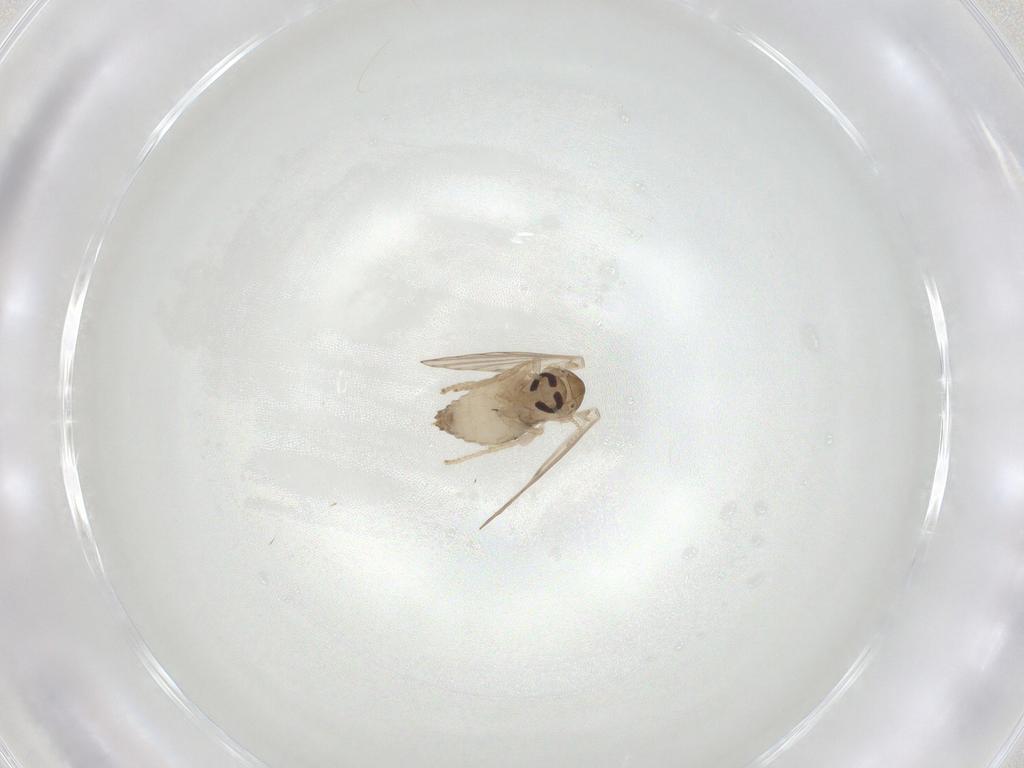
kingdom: Animalia
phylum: Arthropoda
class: Insecta
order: Diptera
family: Psychodidae
